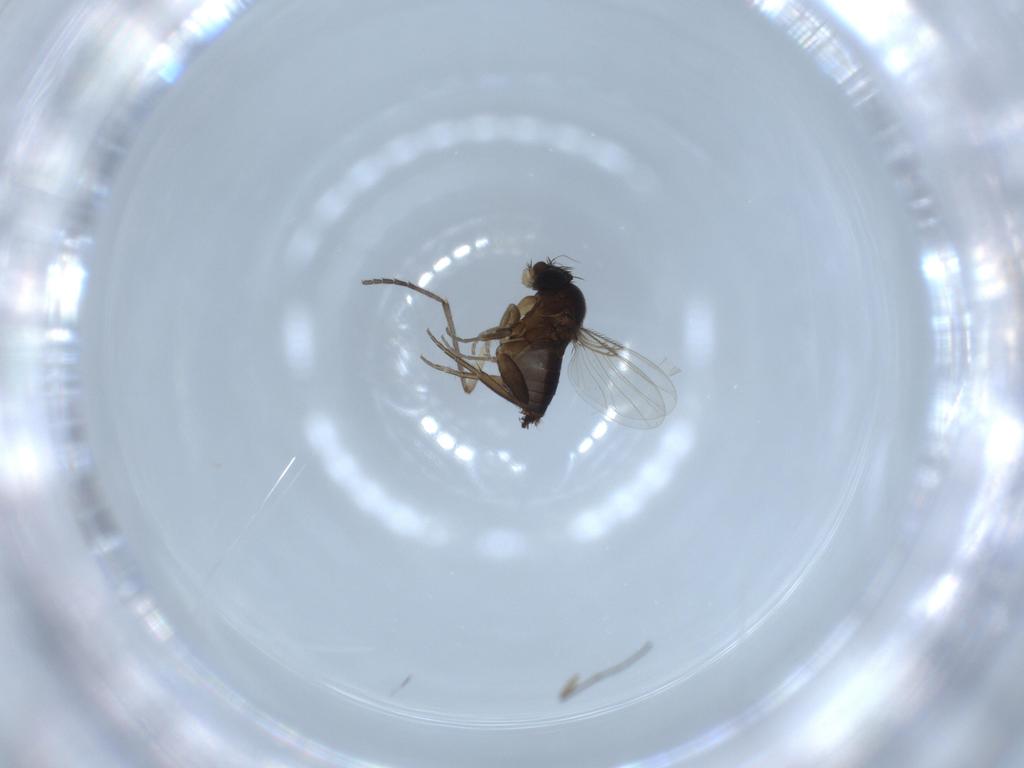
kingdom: Animalia
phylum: Arthropoda
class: Insecta
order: Diptera
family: Phoridae
